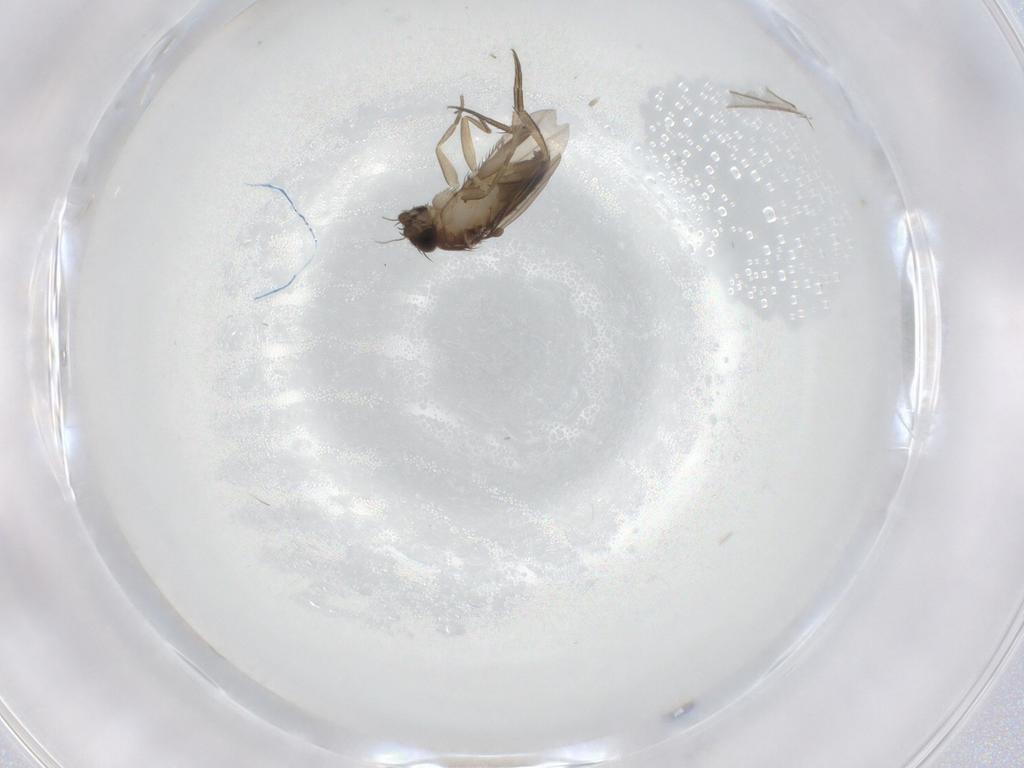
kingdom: Animalia
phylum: Arthropoda
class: Insecta
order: Diptera
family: Phoridae
